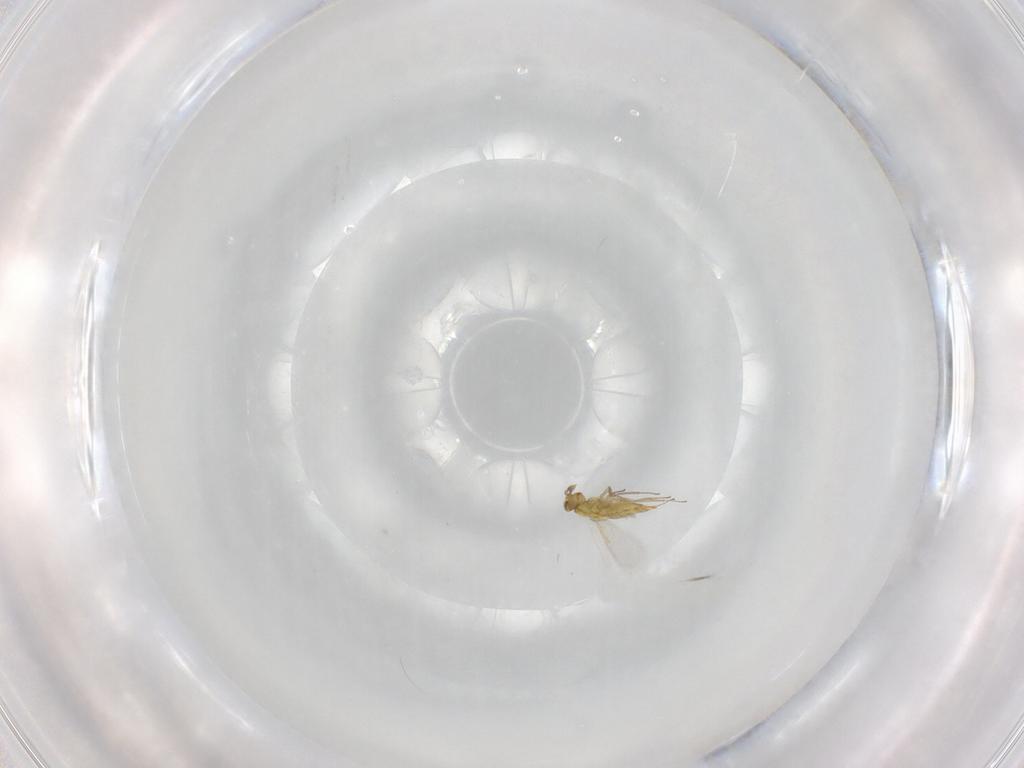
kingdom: Animalia
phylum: Arthropoda
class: Insecta
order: Hymenoptera
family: Aphelinidae
